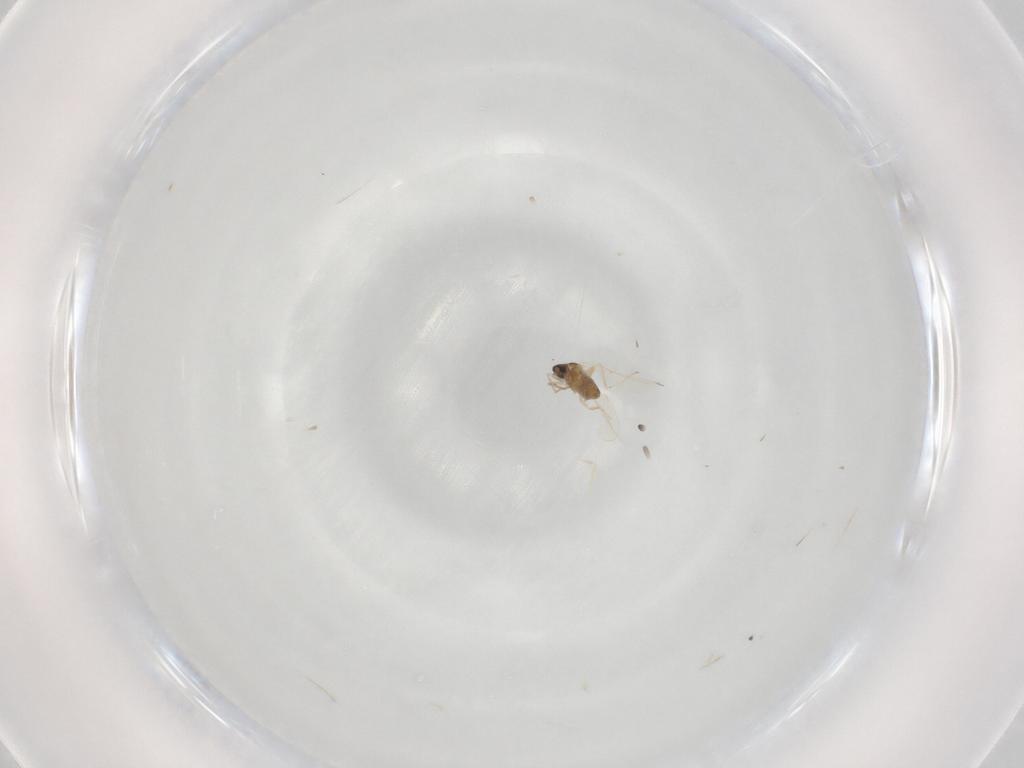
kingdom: Animalia
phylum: Arthropoda
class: Insecta
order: Diptera
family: Cecidomyiidae
